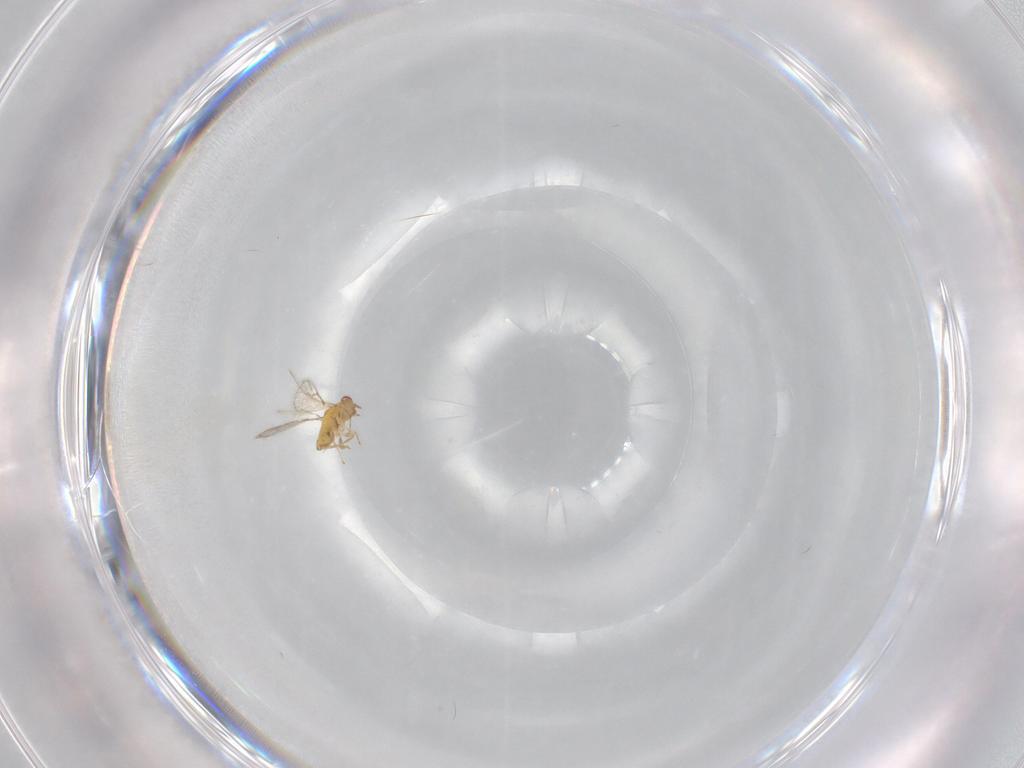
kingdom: Animalia
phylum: Arthropoda
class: Insecta
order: Hymenoptera
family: Trichogrammatidae
